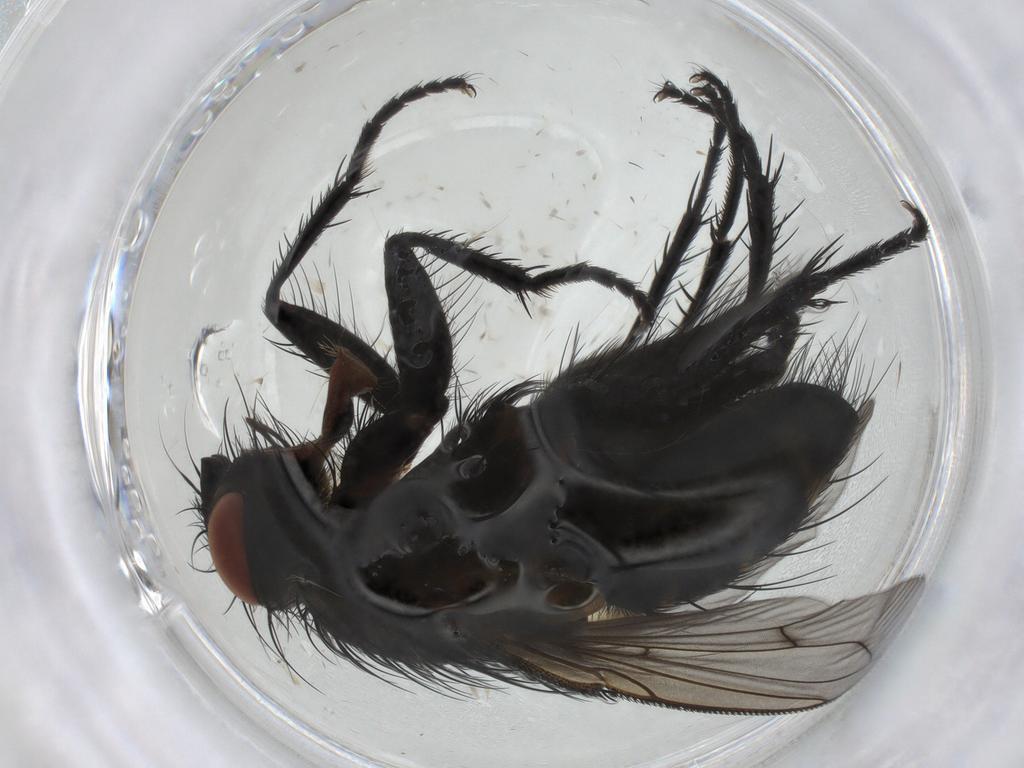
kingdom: Animalia
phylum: Arthropoda
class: Insecta
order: Diptera
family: Tachinidae
